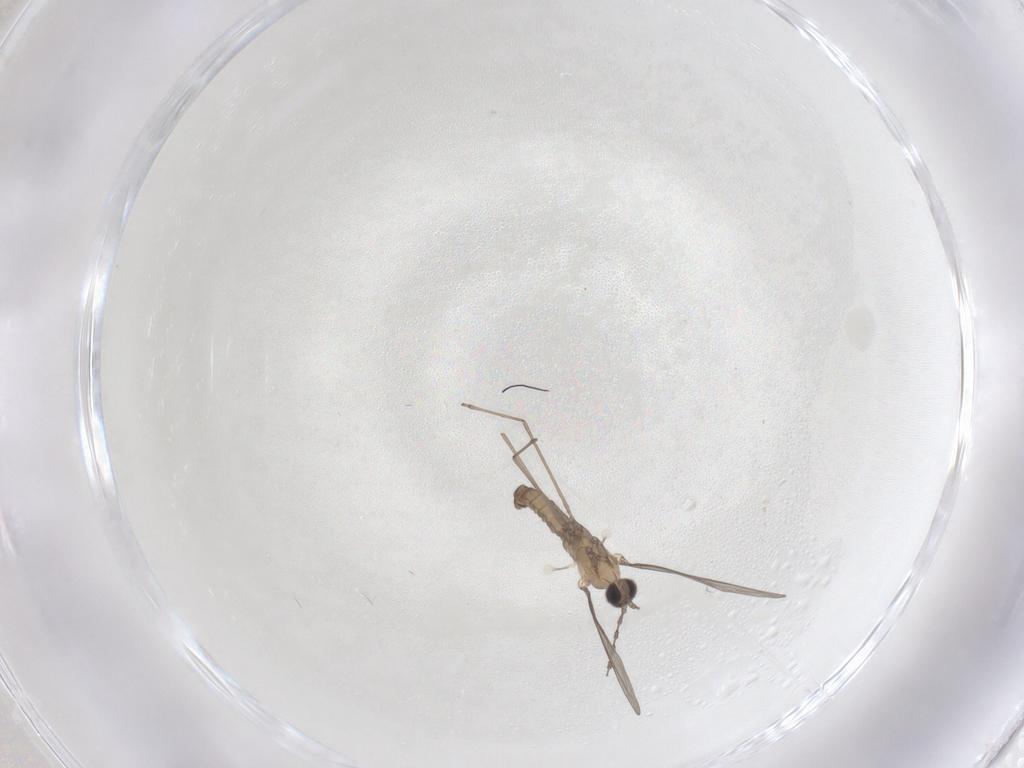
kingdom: Animalia
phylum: Arthropoda
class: Insecta
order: Diptera
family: Cecidomyiidae
